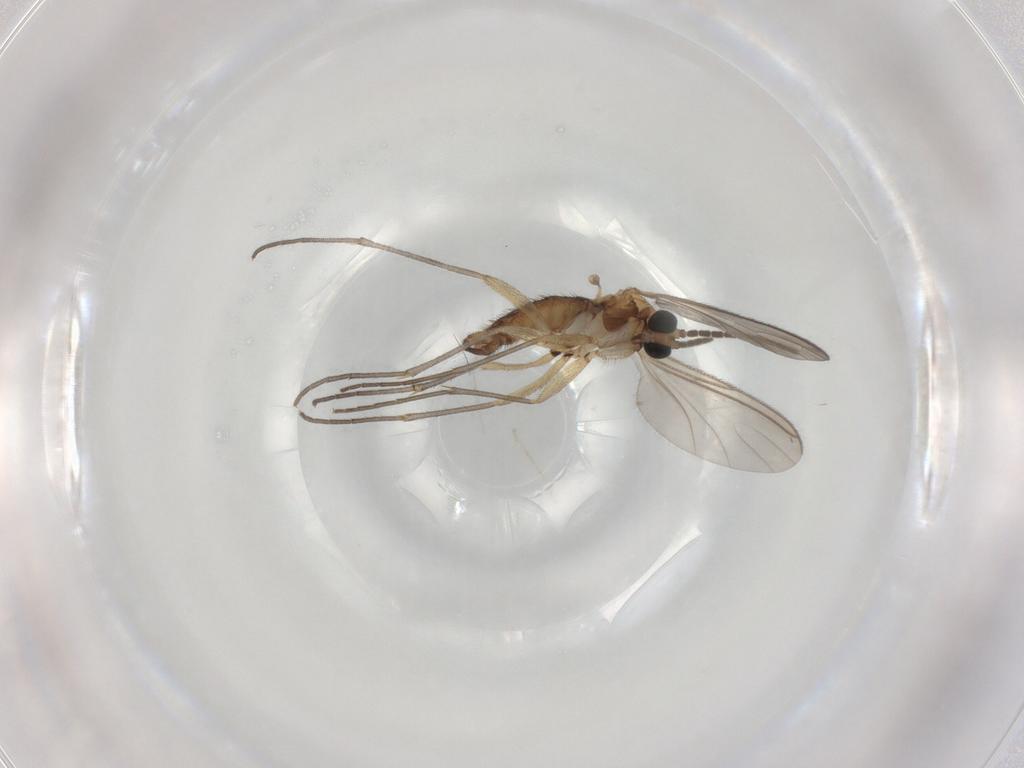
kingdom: Animalia
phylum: Arthropoda
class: Insecta
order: Diptera
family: Sciaridae
